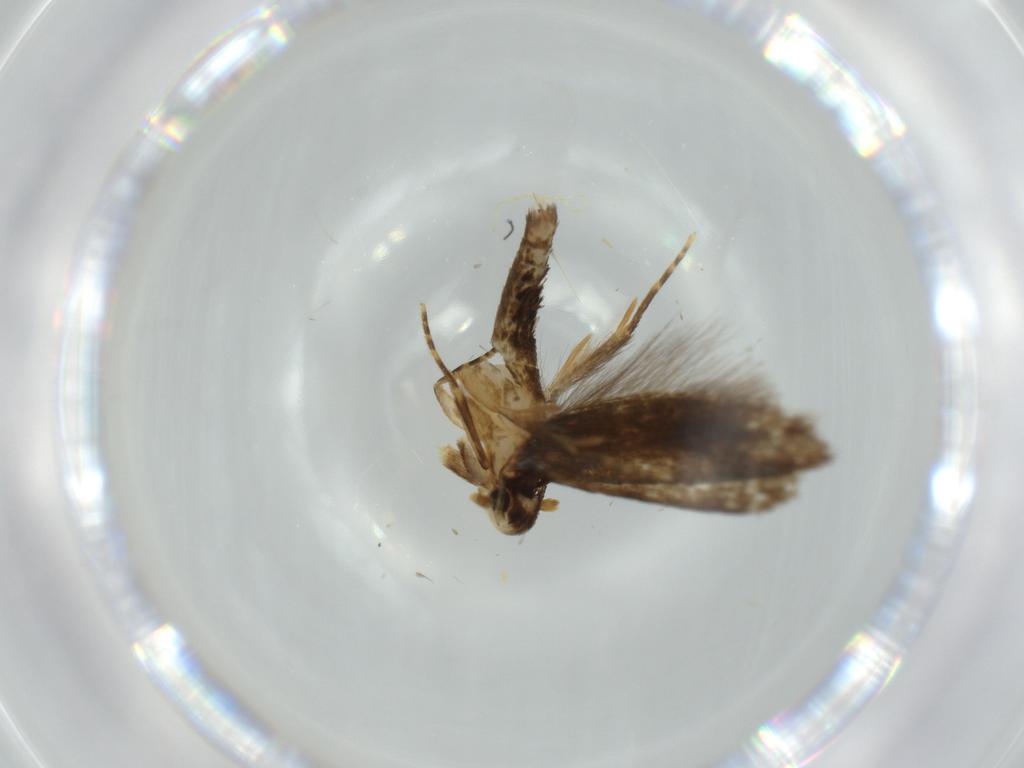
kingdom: Animalia
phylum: Arthropoda
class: Insecta
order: Lepidoptera
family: Tineidae
